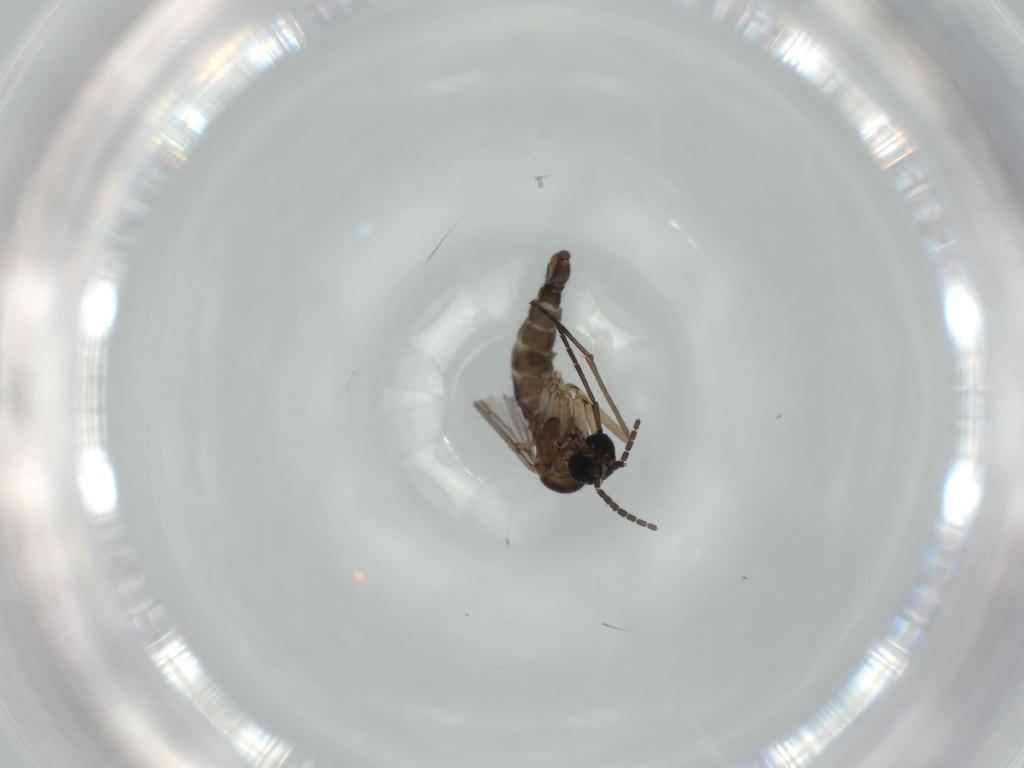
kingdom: Animalia
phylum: Arthropoda
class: Insecta
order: Diptera
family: Sciaridae
